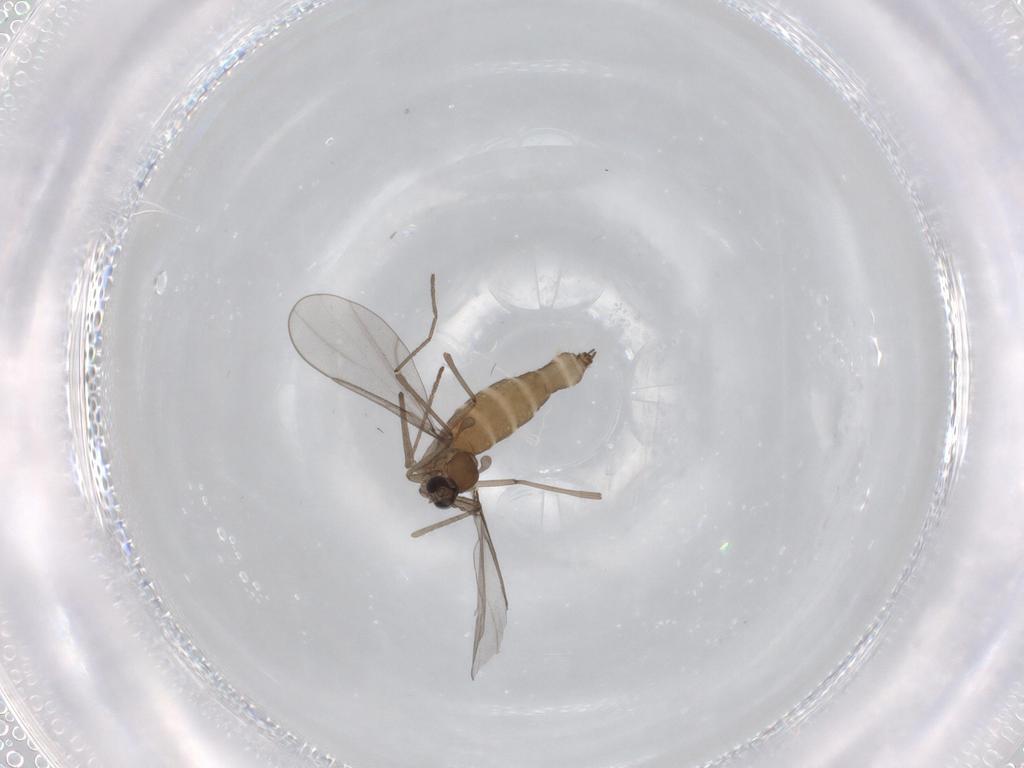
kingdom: Animalia
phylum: Arthropoda
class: Insecta
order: Diptera
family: Cecidomyiidae
